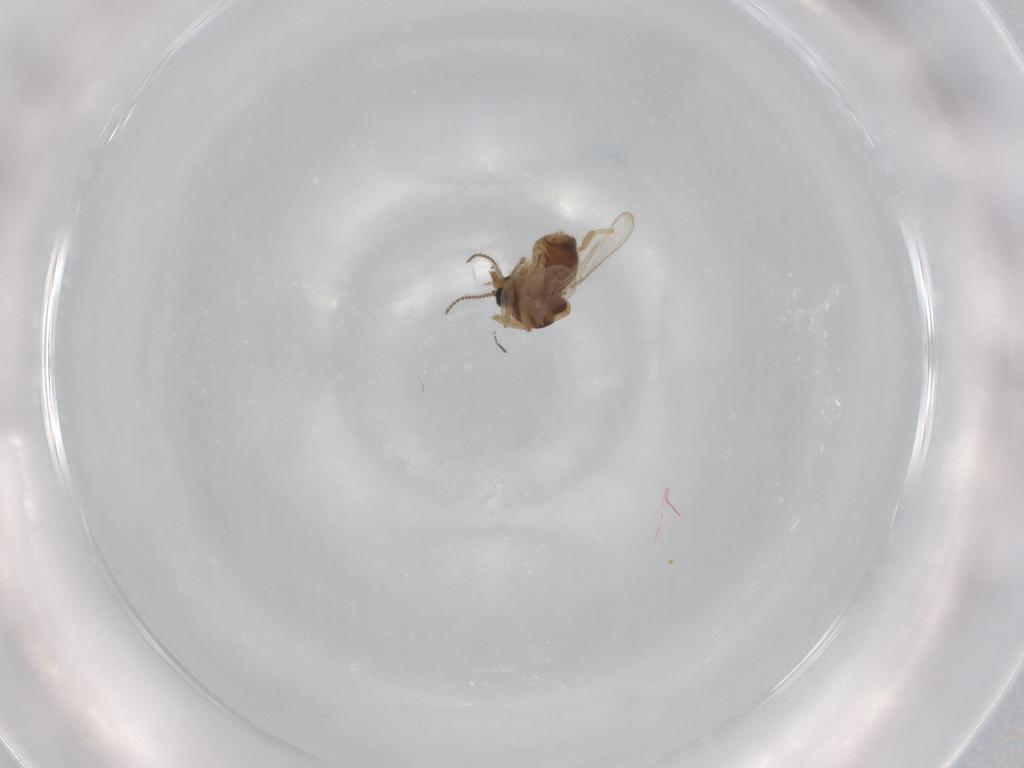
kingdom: Animalia
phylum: Arthropoda
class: Insecta
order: Diptera
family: Ceratopogonidae
